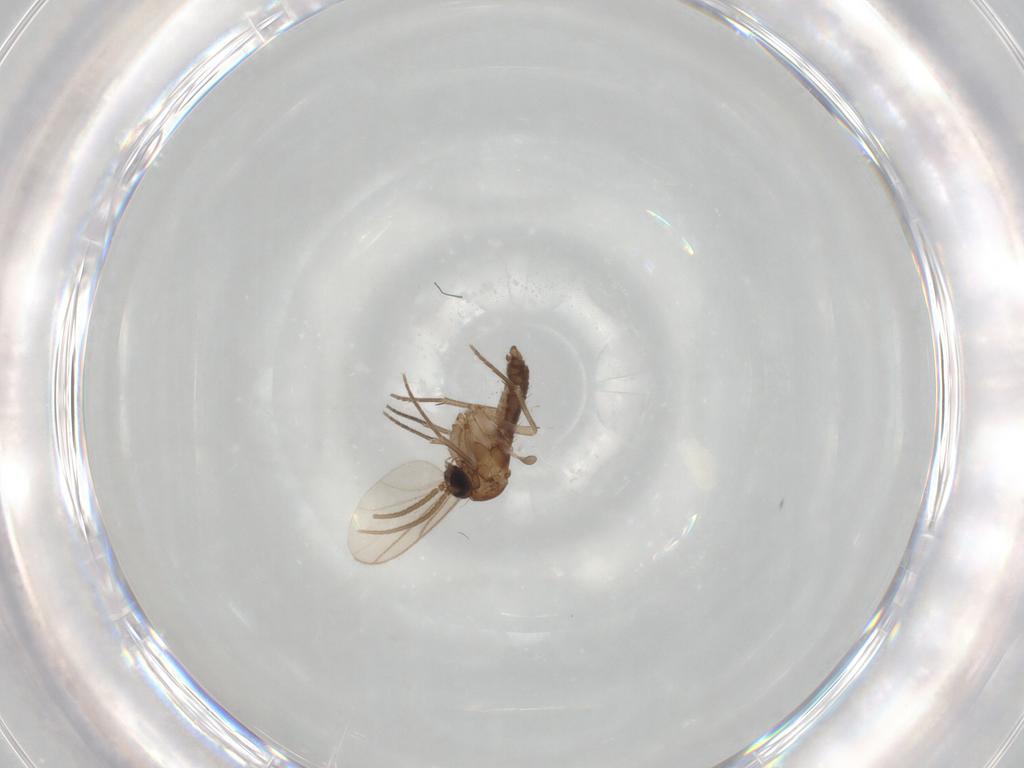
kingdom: Animalia
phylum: Arthropoda
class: Insecta
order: Diptera
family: Sciaridae
